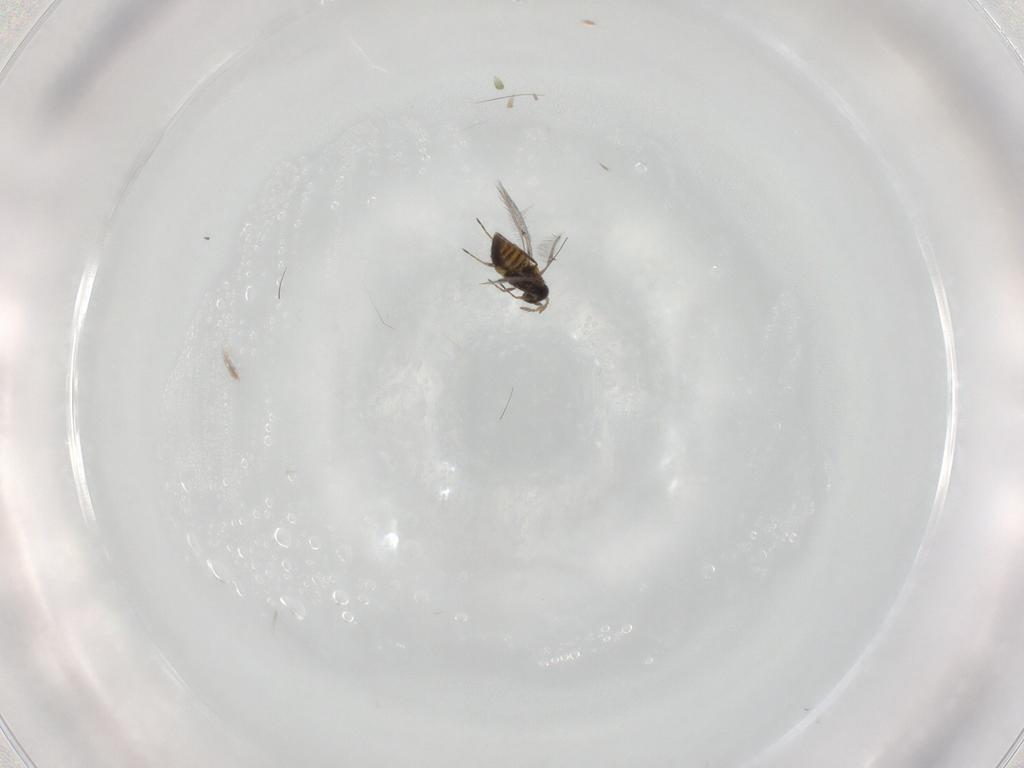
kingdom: Animalia
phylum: Arthropoda
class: Insecta
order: Hymenoptera
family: Trichogrammatidae
